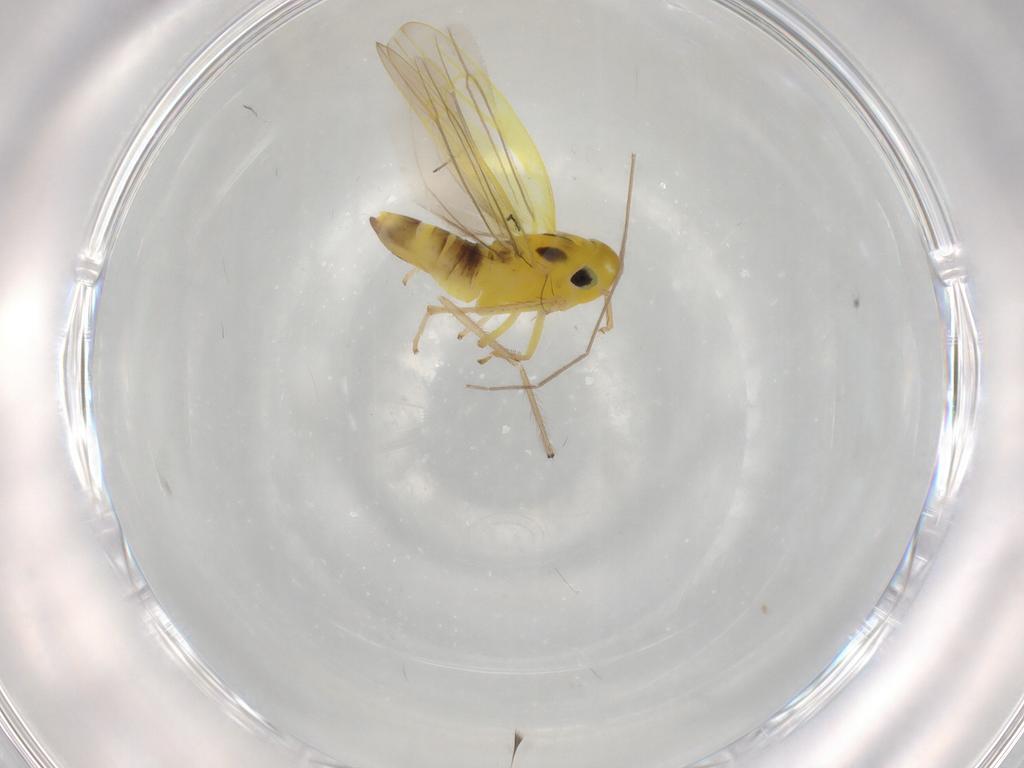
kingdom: Animalia
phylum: Arthropoda
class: Insecta
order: Hemiptera
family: Cicadellidae
